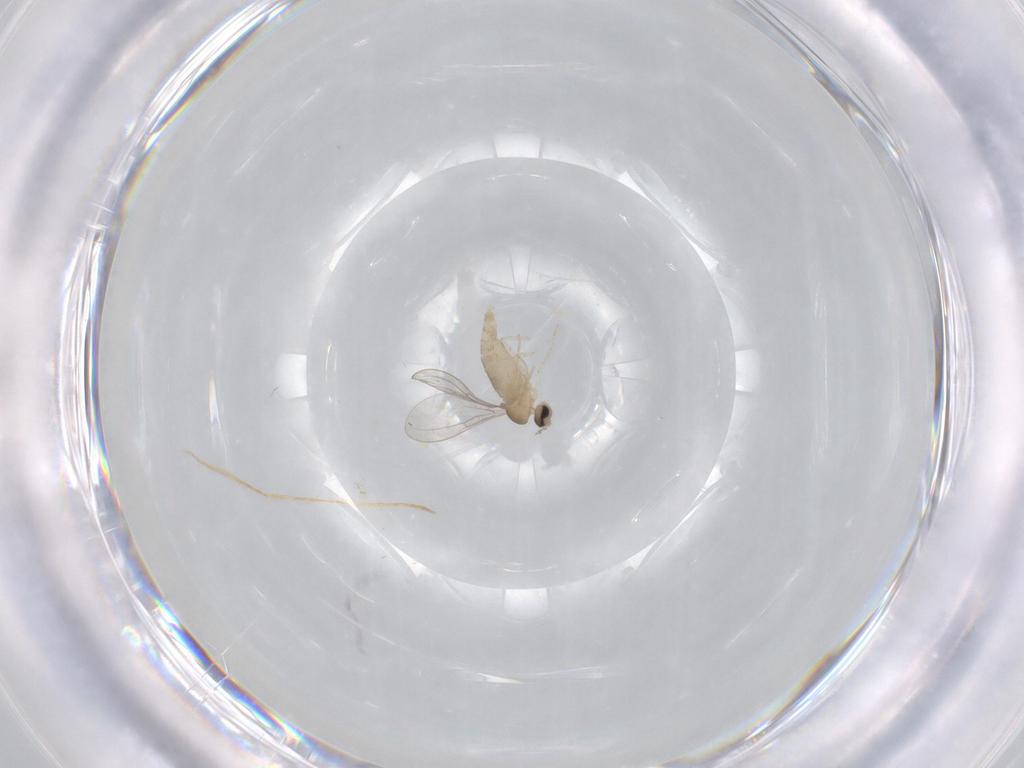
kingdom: Animalia
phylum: Arthropoda
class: Insecta
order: Diptera
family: Cecidomyiidae
